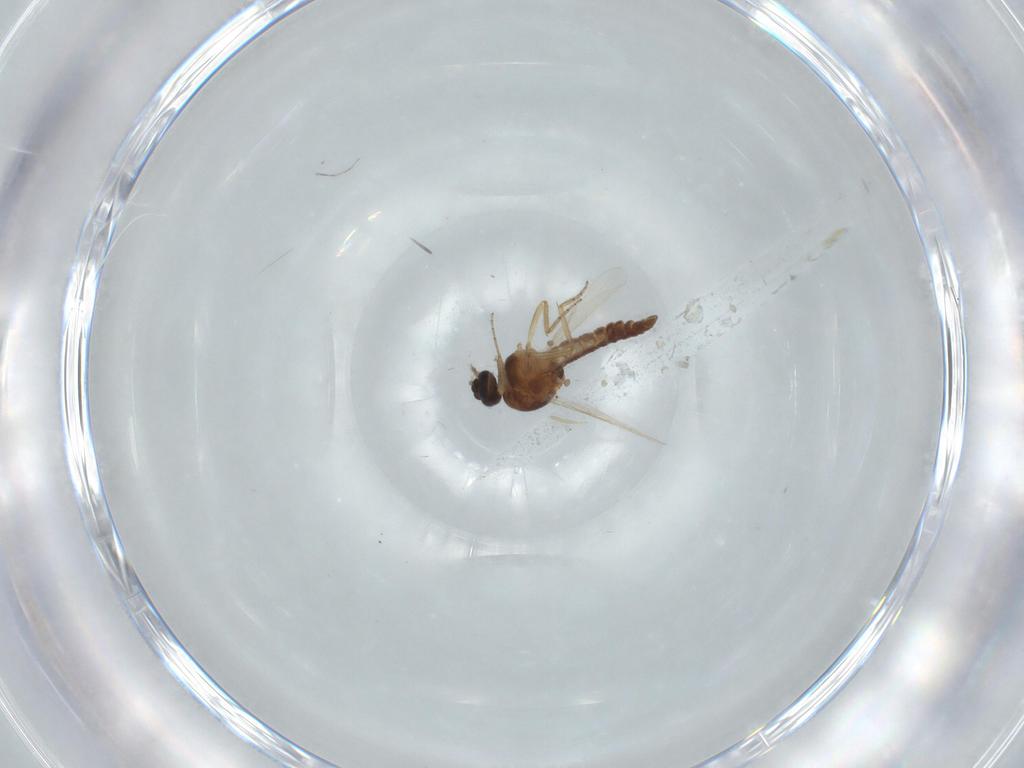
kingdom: Animalia
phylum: Arthropoda
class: Insecta
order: Diptera
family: Ceratopogonidae
